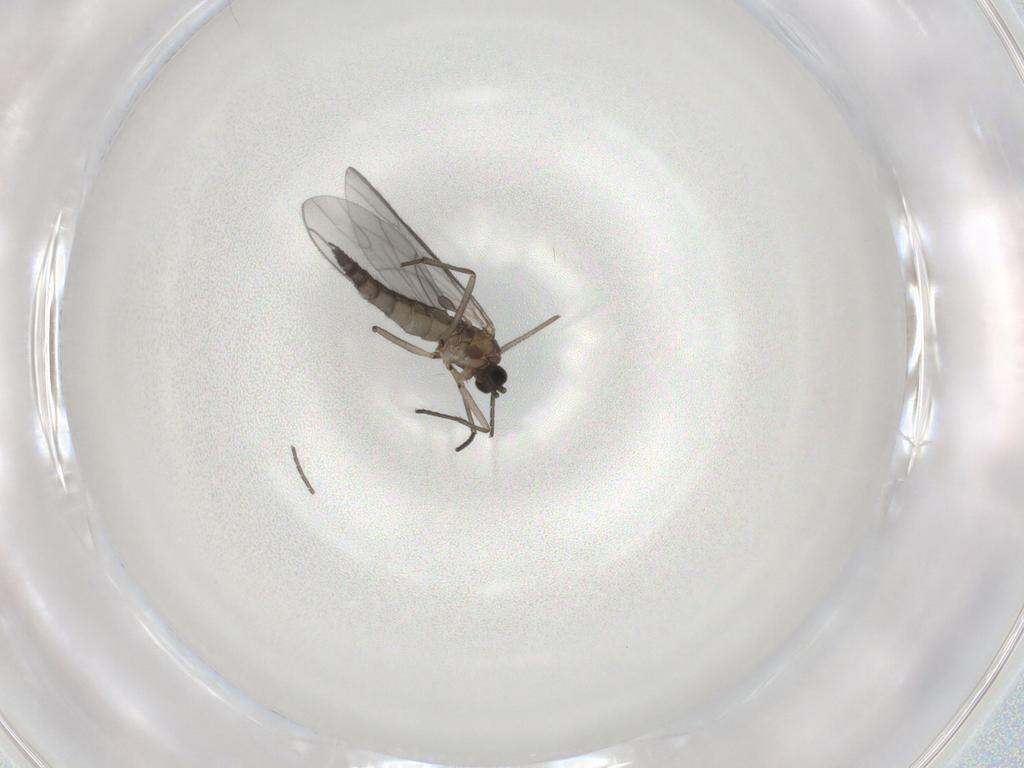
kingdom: Animalia
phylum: Arthropoda
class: Insecta
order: Diptera
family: Sciaridae
